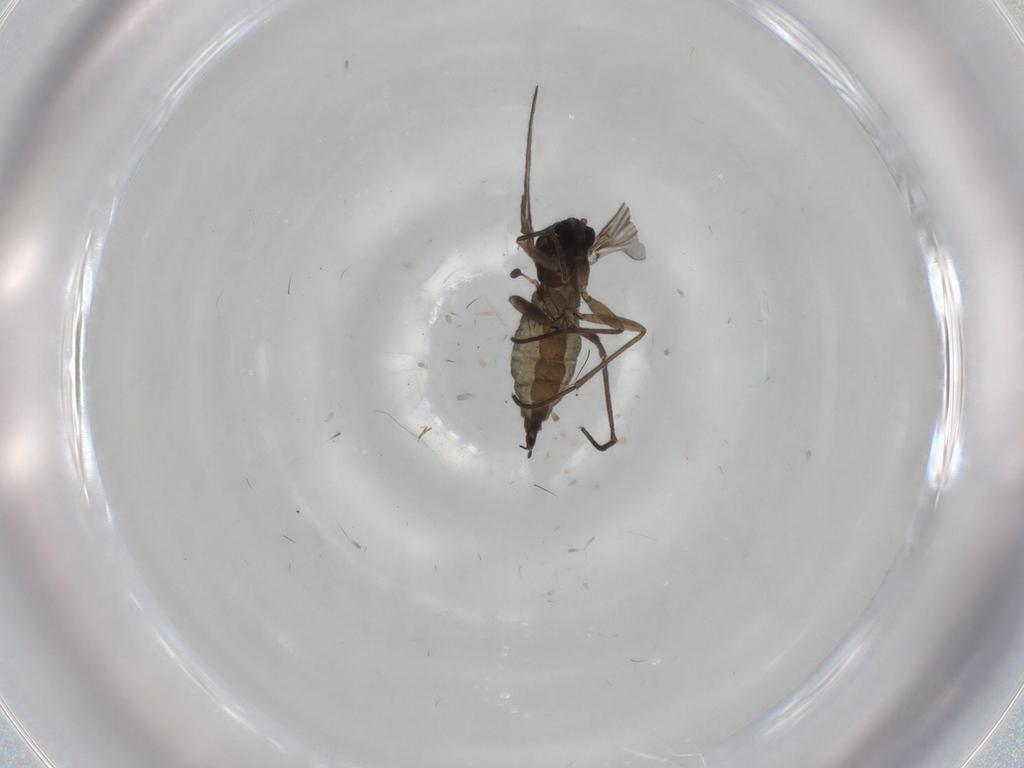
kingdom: Animalia
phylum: Arthropoda
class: Insecta
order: Diptera
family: Sciaridae
